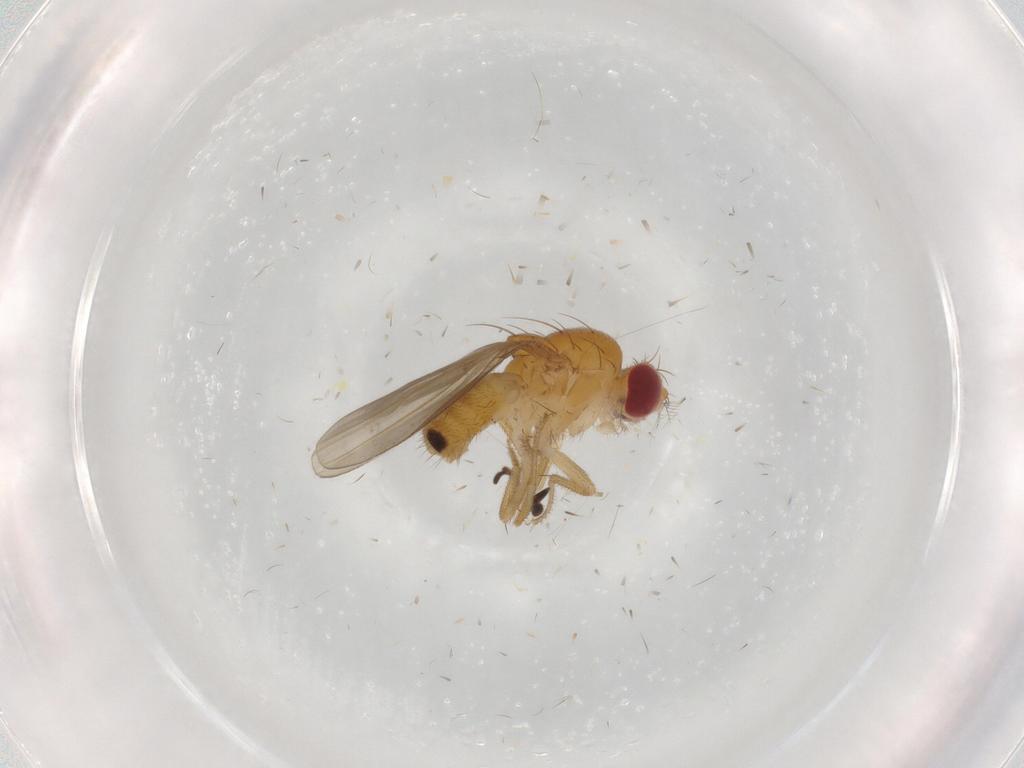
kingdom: Animalia
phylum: Arthropoda
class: Insecta
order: Diptera
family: Drosophilidae
